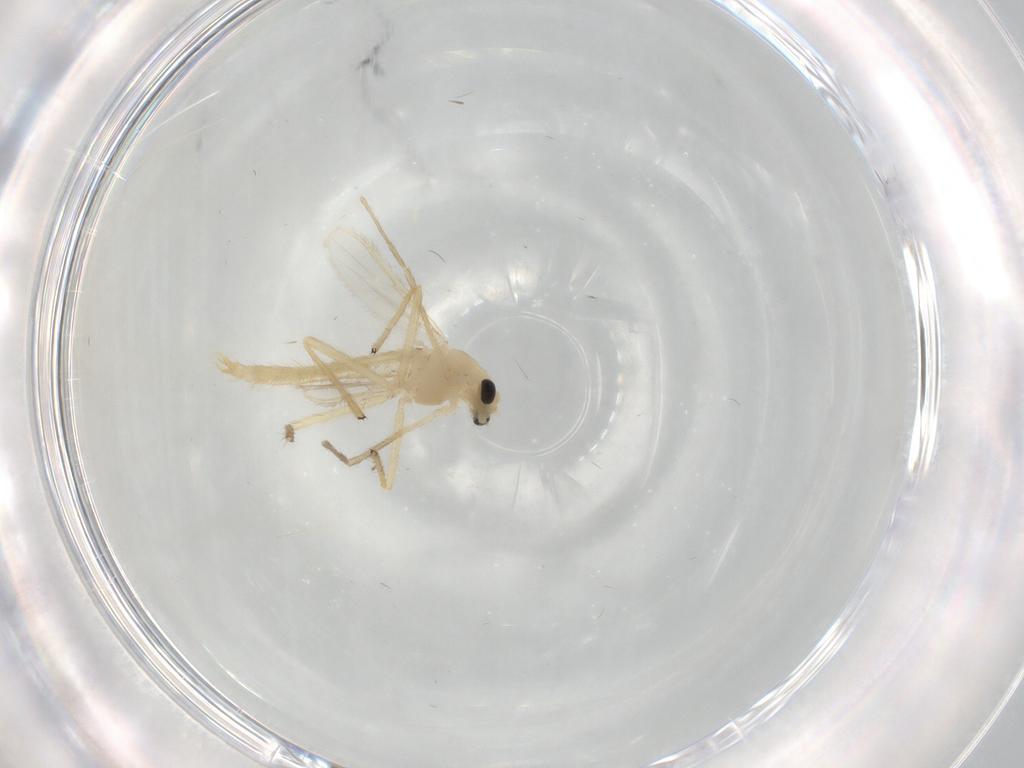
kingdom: Animalia
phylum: Arthropoda
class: Insecta
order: Diptera
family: Chironomidae
